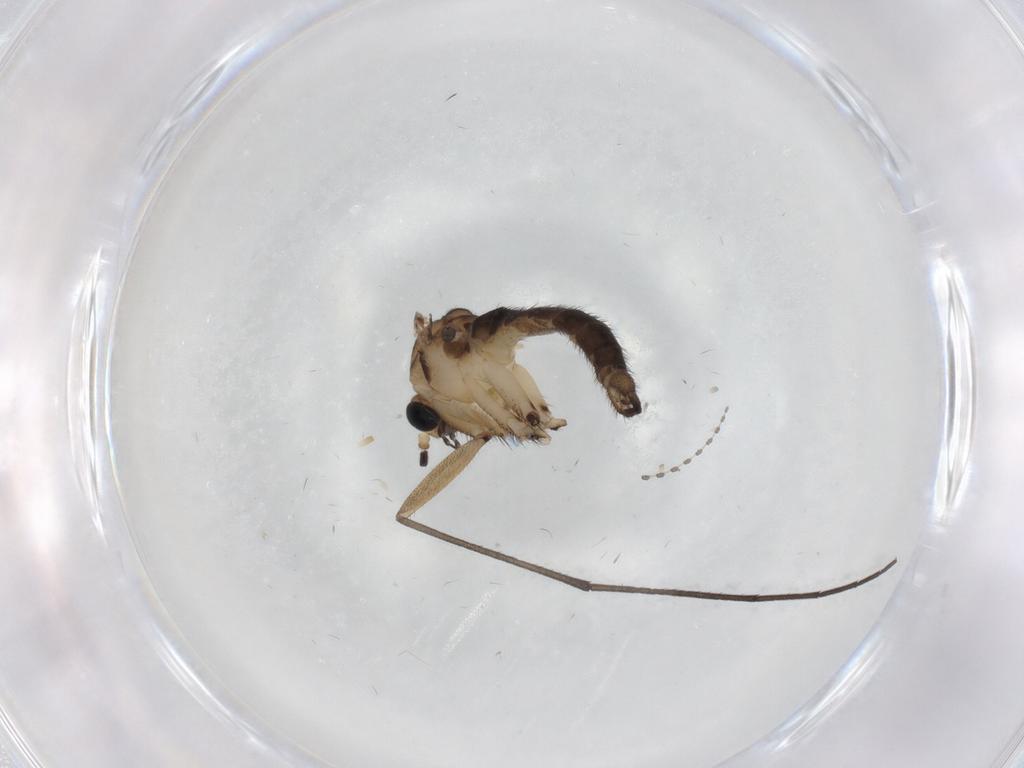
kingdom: Animalia
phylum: Arthropoda
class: Insecta
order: Diptera
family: Sciaridae
